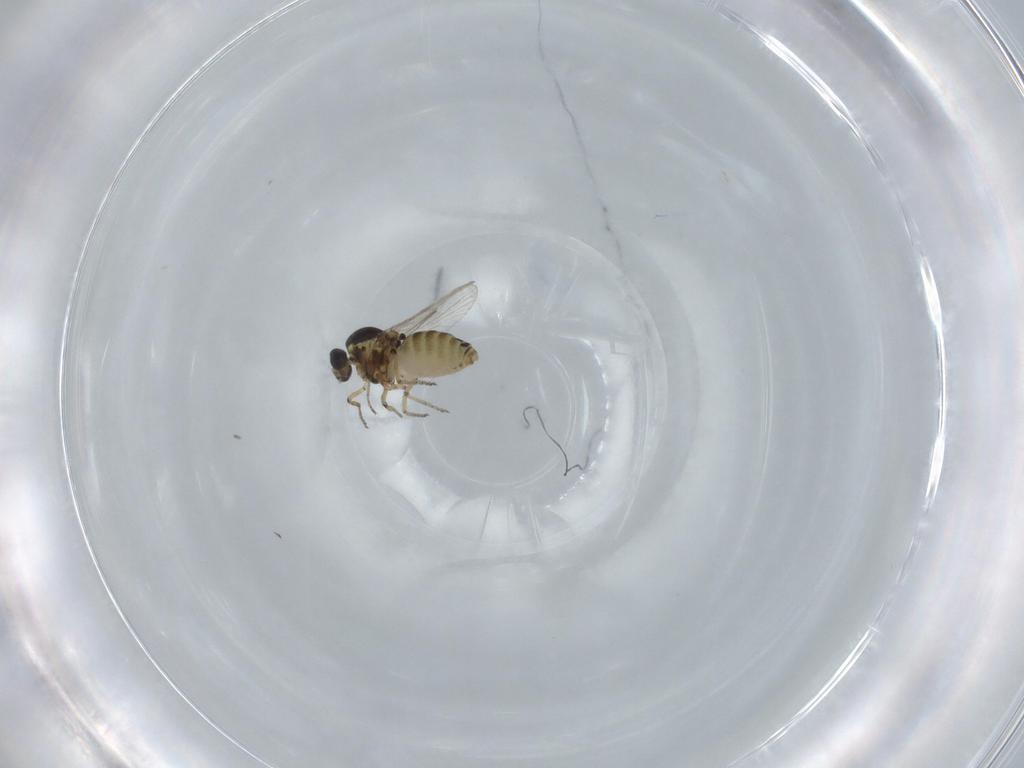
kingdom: Animalia
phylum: Arthropoda
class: Insecta
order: Diptera
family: Ceratopogonidae
